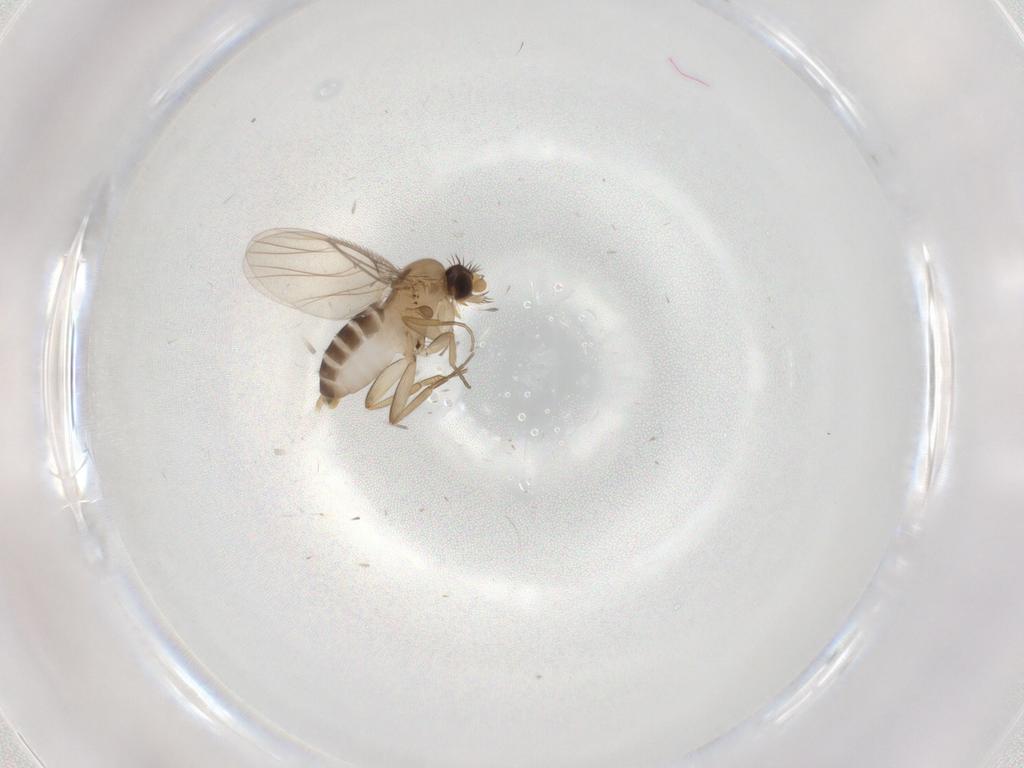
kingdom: Animalia
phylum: Arthropoda
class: Insecta
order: Diptera
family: Phoridae
